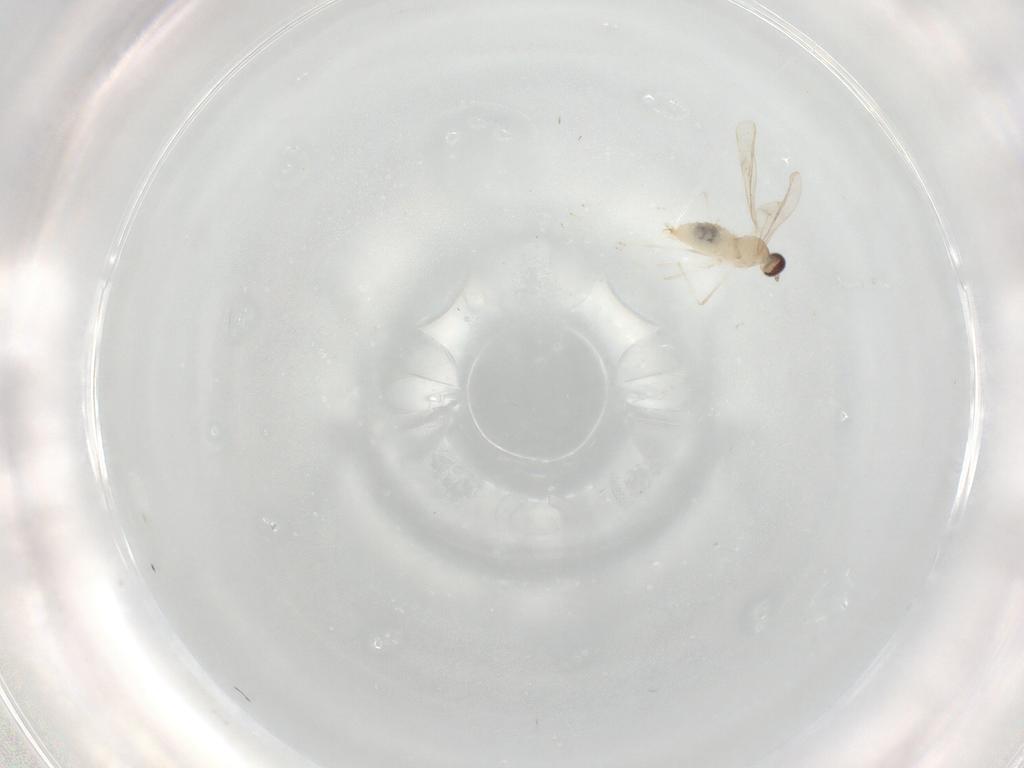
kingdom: Animalia
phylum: Arthropoda
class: Insecta
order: Diptera
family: Cecidomyiidae
